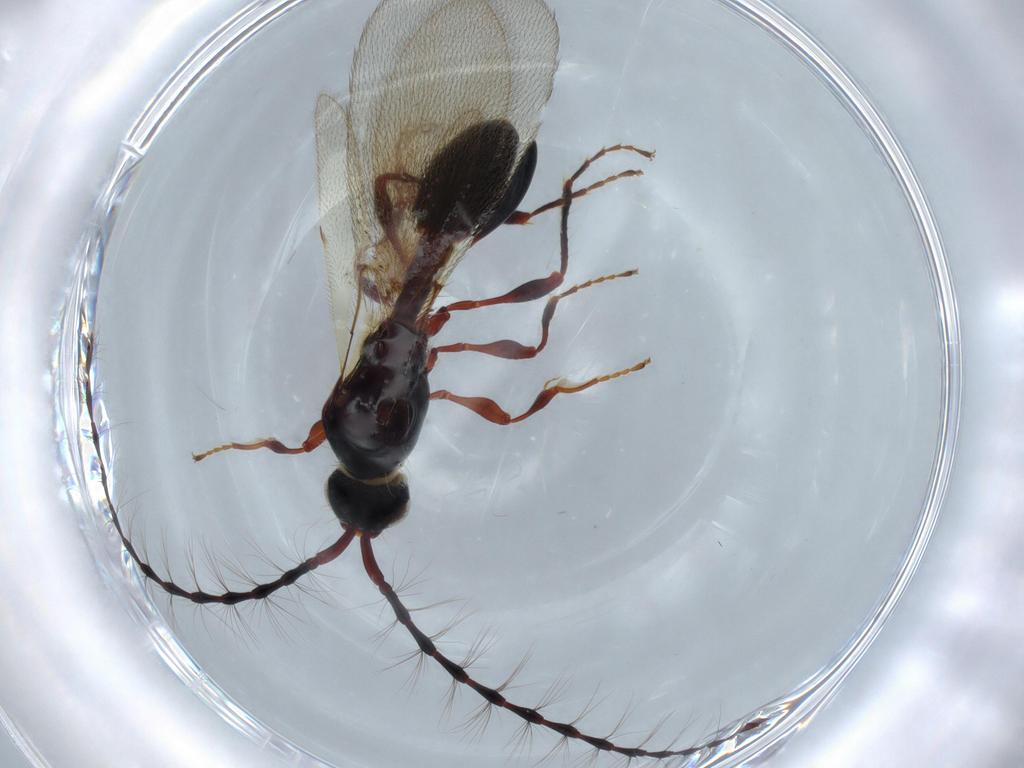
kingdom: Animalia
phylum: Arthropoda
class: Insecta
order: Hymenoptera
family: Diapriidae
